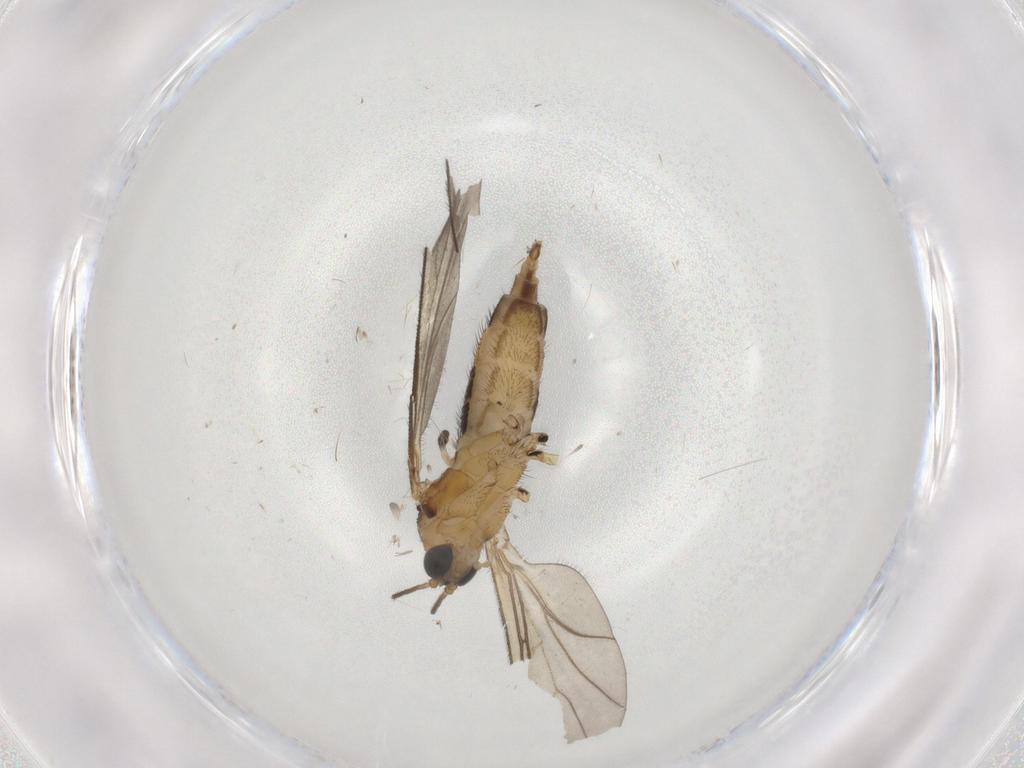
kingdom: Animalia
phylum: Arthropoda
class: Insecta
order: Diptera
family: Sciaridae
